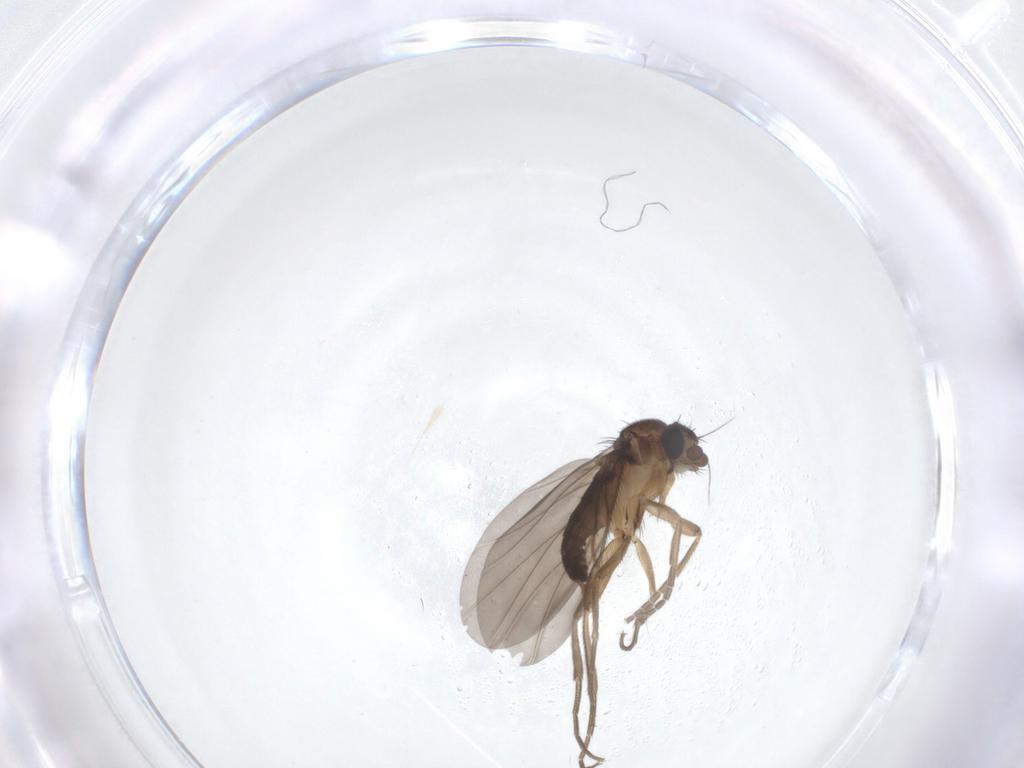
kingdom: Animalia
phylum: Arthropoda
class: Insecta
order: Diptera
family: Phoridae
